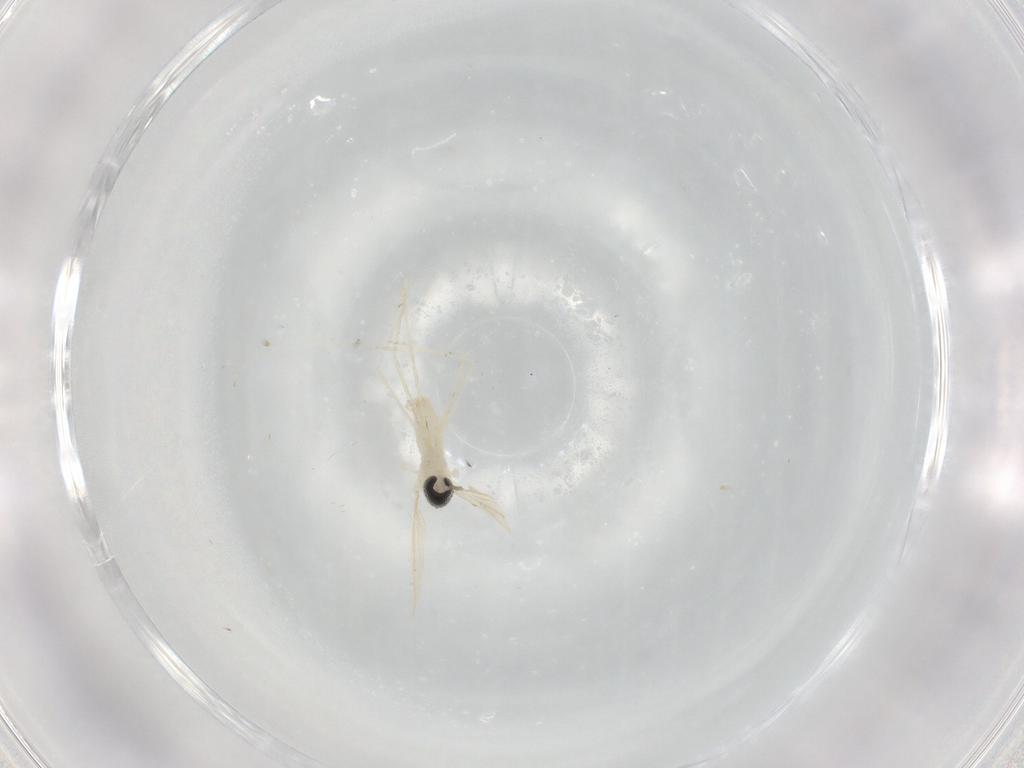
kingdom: Animalia
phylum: Arthropoda
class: Insecta
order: Diptera
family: Cecidomyiidae
